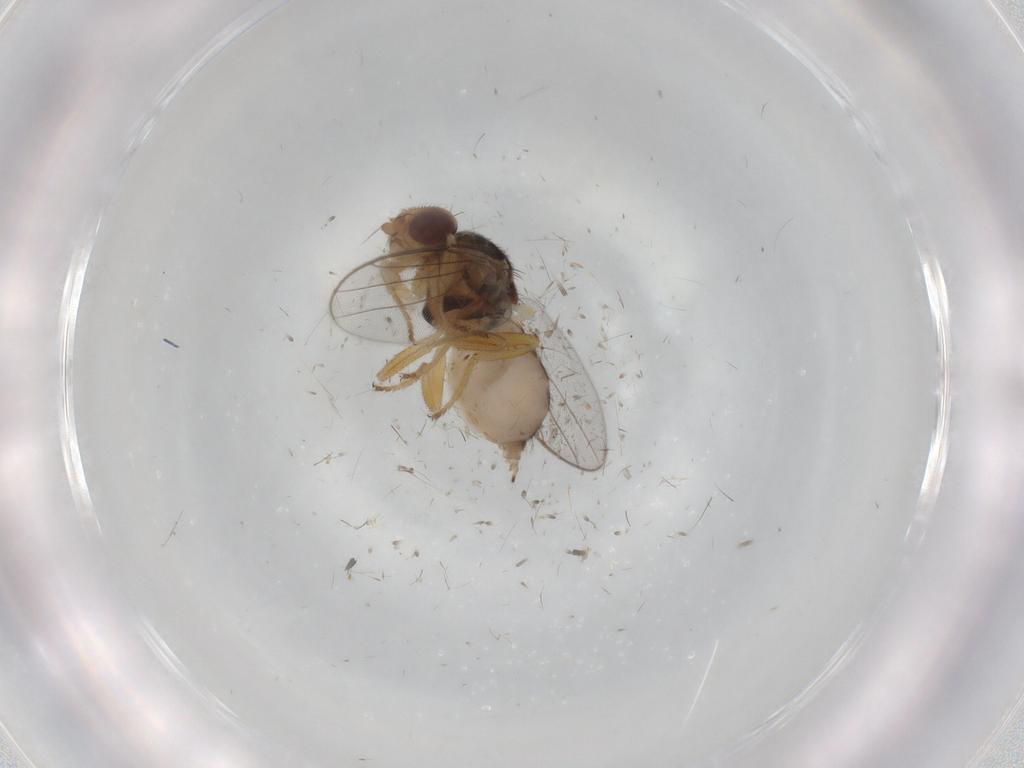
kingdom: Animalia
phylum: Arthropoda
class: Insecta
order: Diptera
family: Chloropidae
